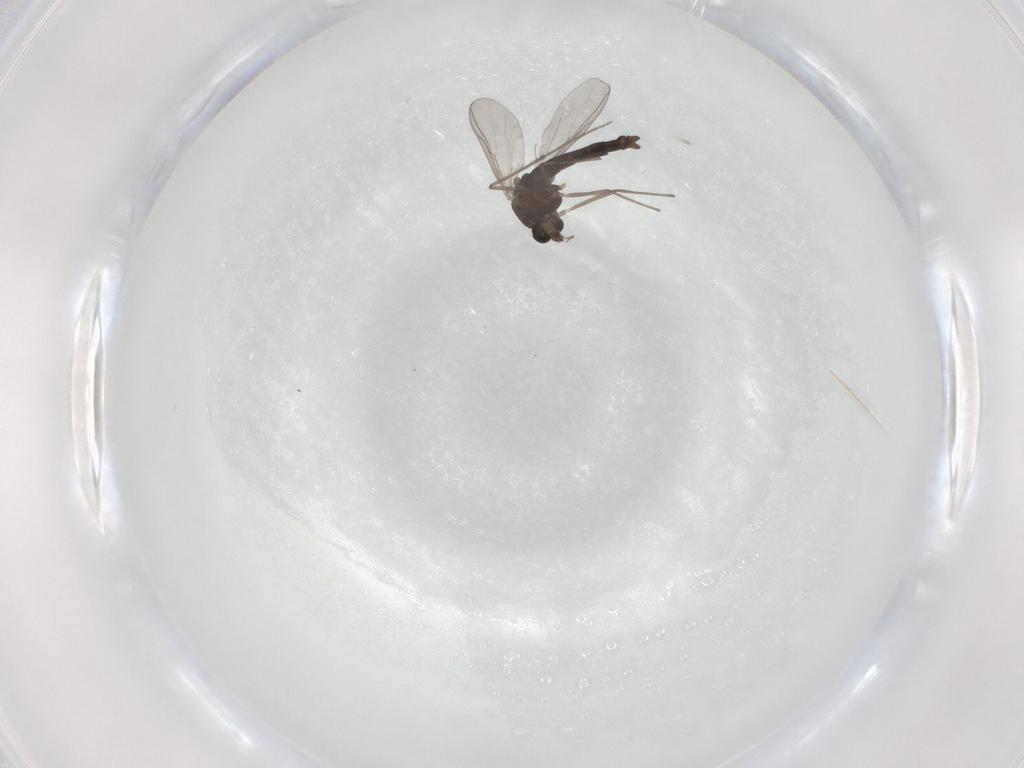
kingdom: Animalia
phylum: Arthropoda
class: Insecta
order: Diptera
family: Chironomidae
